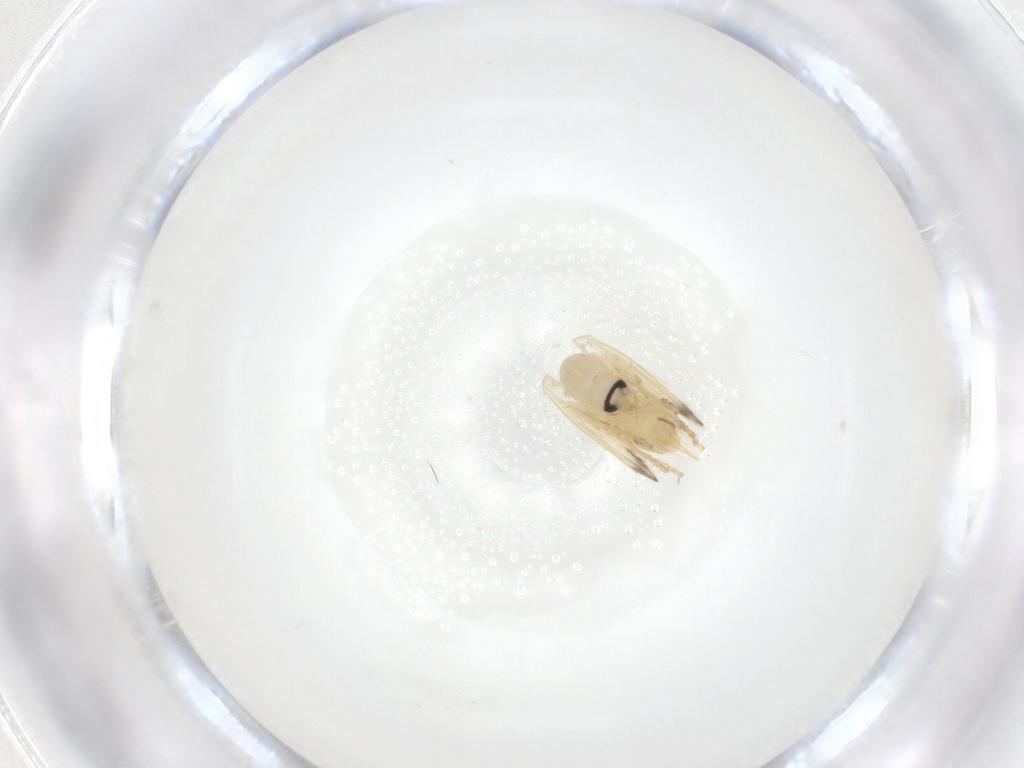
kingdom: Animalia
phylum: Arthropoda
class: Insecta
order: Diptera
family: Psychodidae
